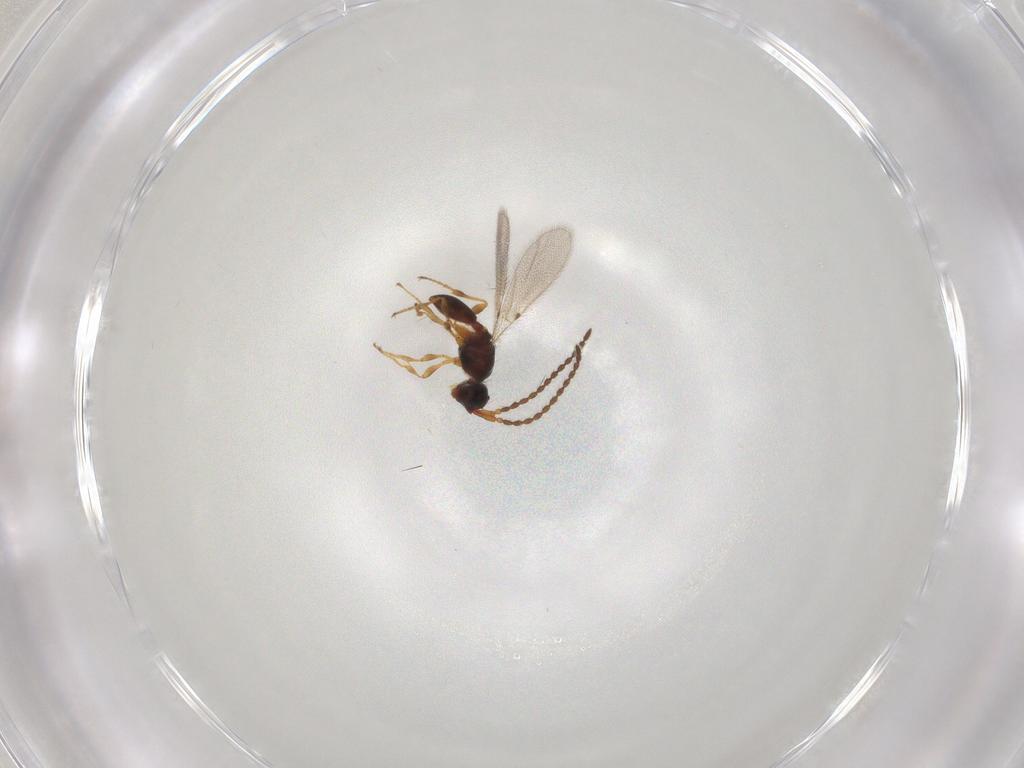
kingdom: Animalia
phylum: Arthropoda
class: Insecta
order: Hymenoptera
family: Diapriidae
